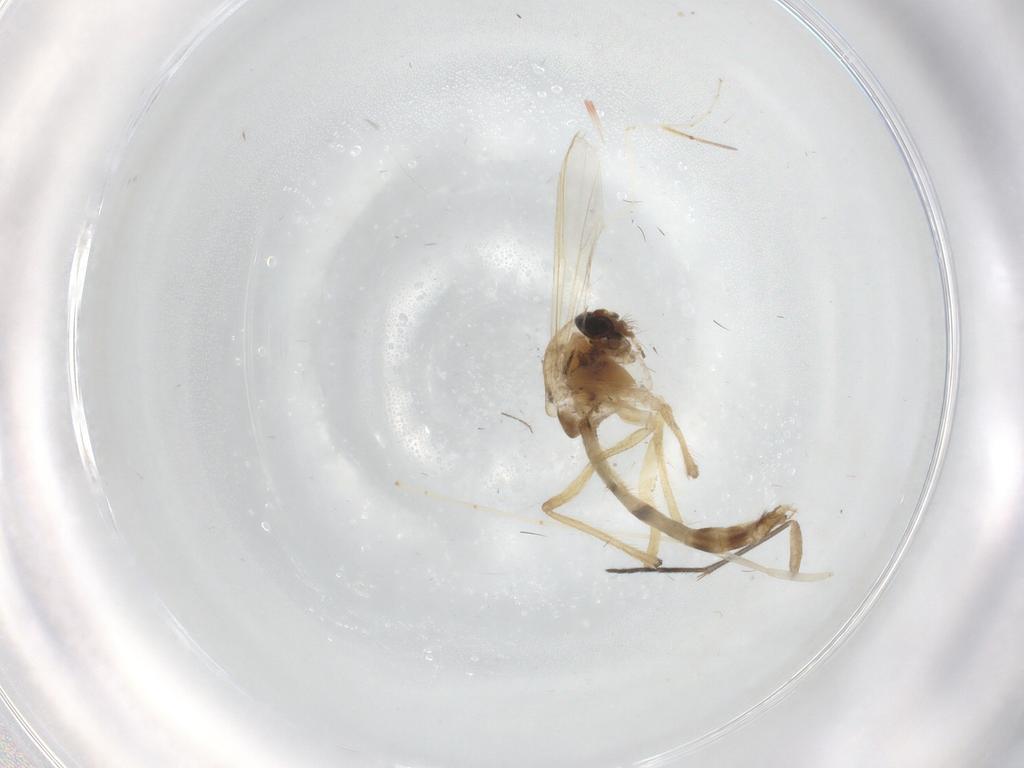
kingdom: Animalia
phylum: Arthropoda
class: Insecta
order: Diptera
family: Chironomidae
